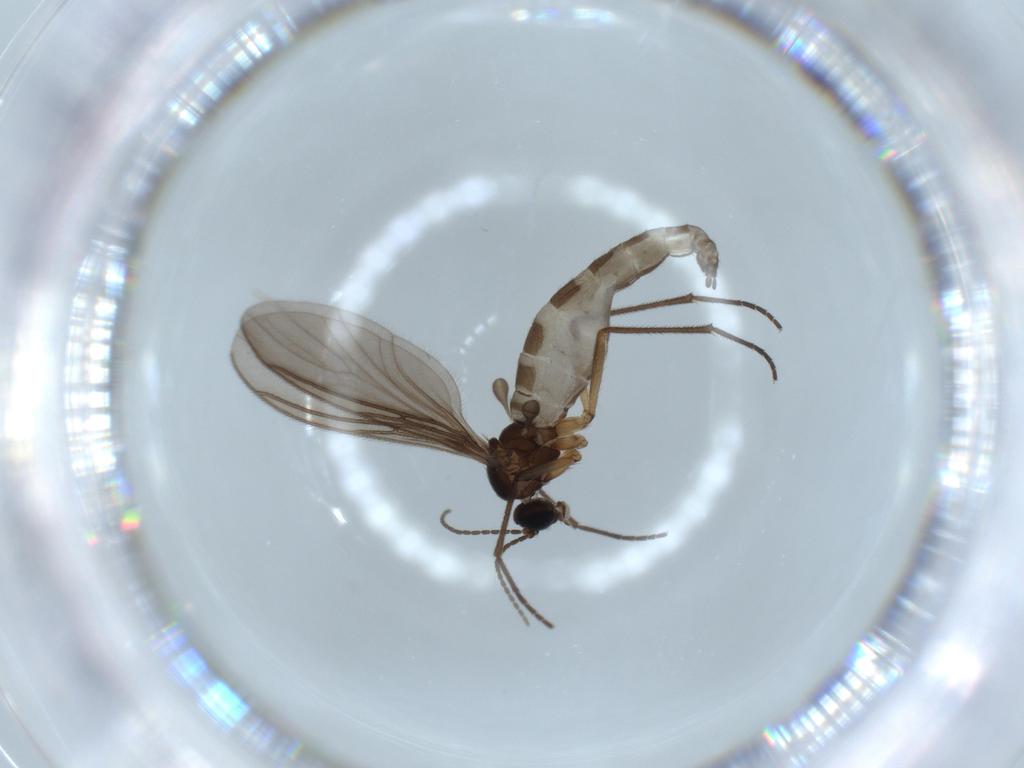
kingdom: Animalia
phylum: Arthropoda
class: Insecta
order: Diptera
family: Sciaridae
